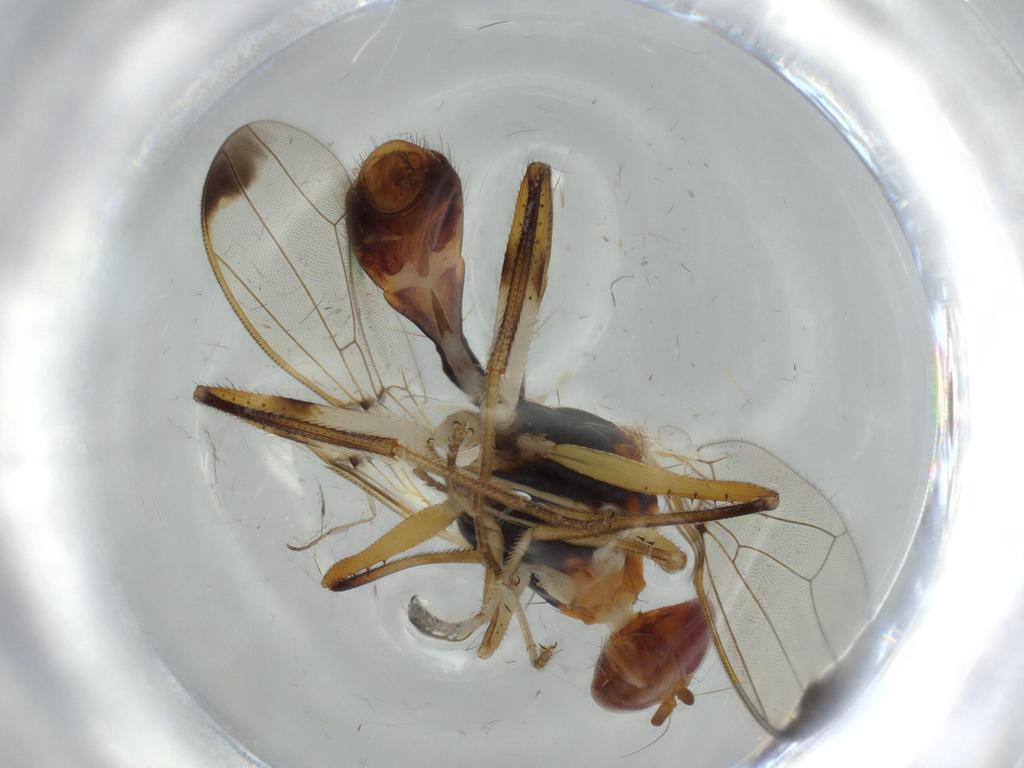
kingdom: Animalia
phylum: Arthropoda
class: Insecta
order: Diptera
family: Richardiidae
